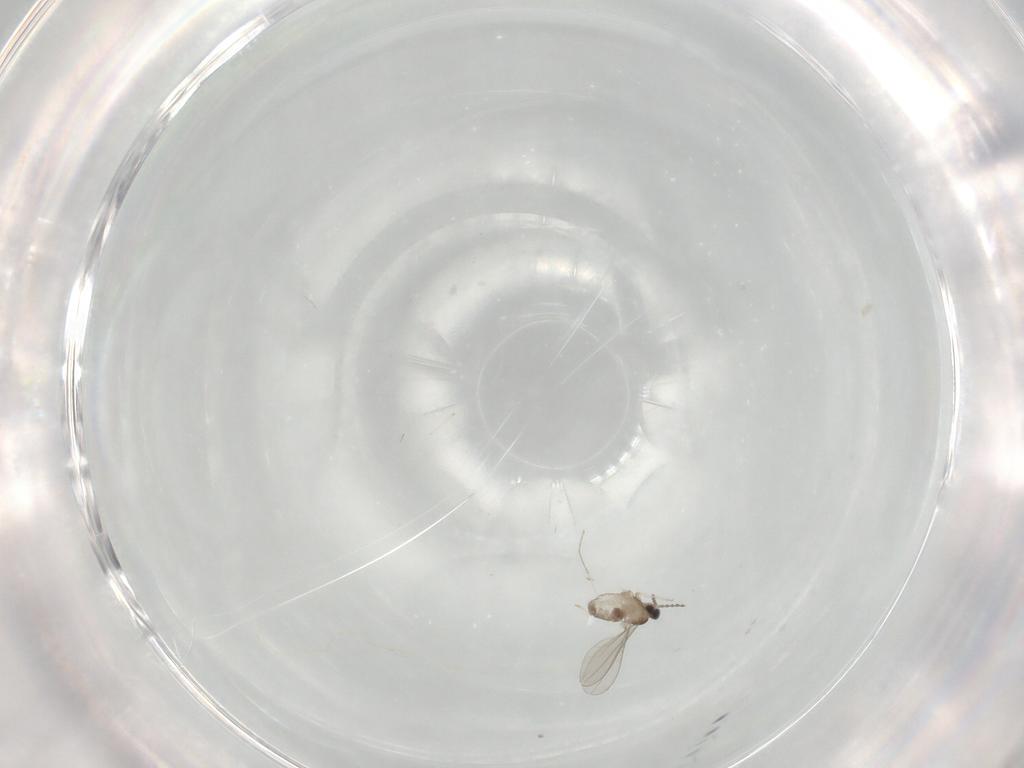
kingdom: Animalia
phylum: Arthropoda
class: Insecta
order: Diptera
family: Cecidomyiidae
